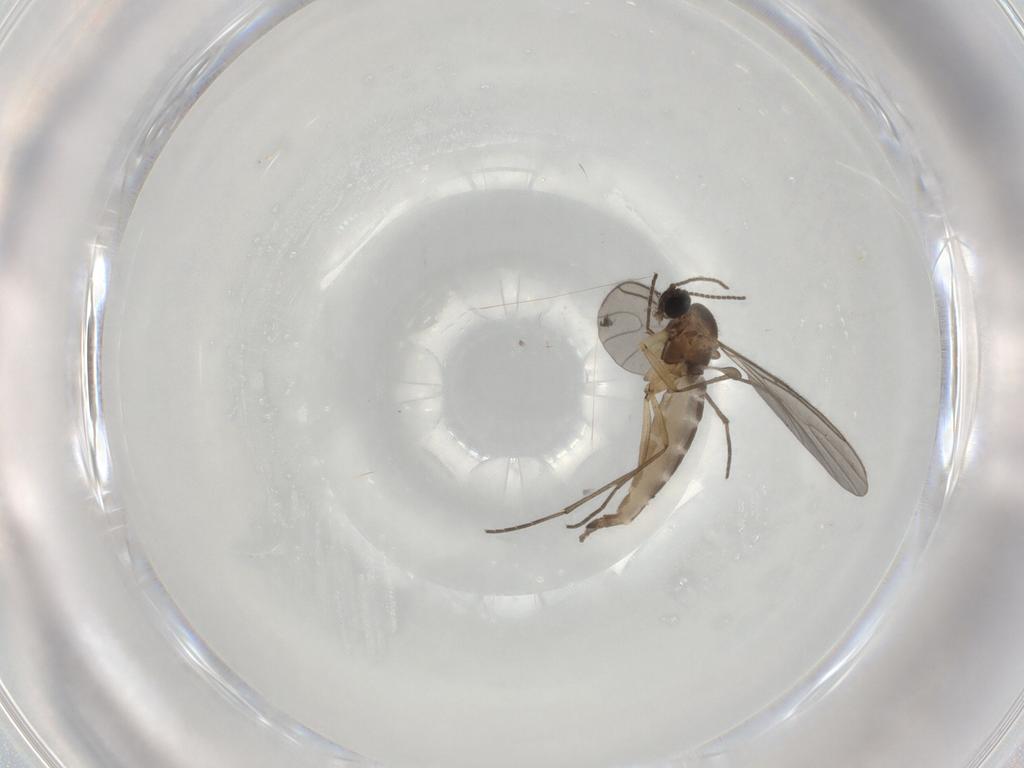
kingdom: Animalia
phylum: Arthropoda
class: Insecta
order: Diptera
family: Sciaridae
